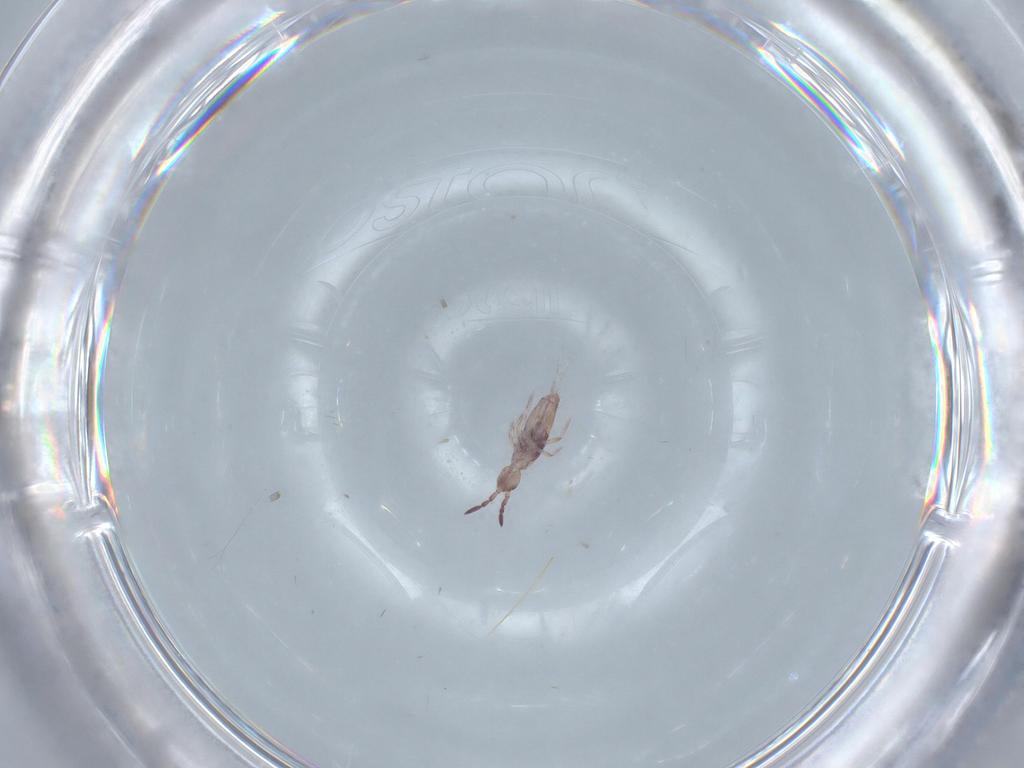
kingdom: Animalia
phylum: Arthropoda
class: Collembola
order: Entomobryomorpha
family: Entomobryidae
